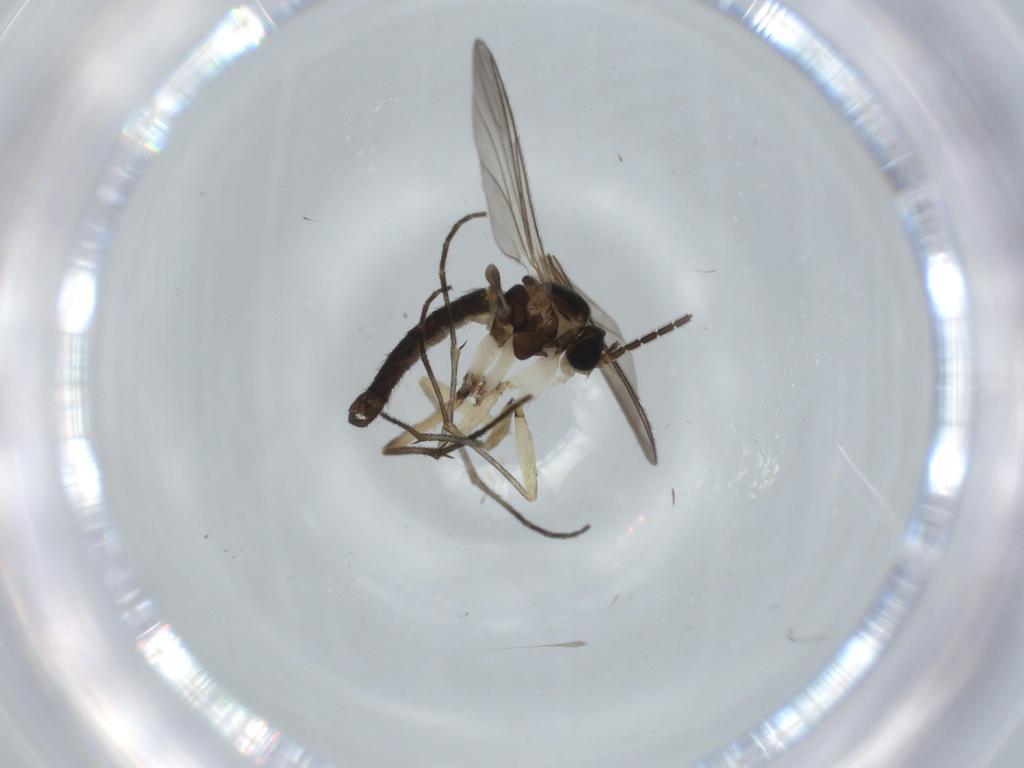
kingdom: Animalia
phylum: Arthropoda
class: Insecta
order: Diptera
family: Sciaridae
